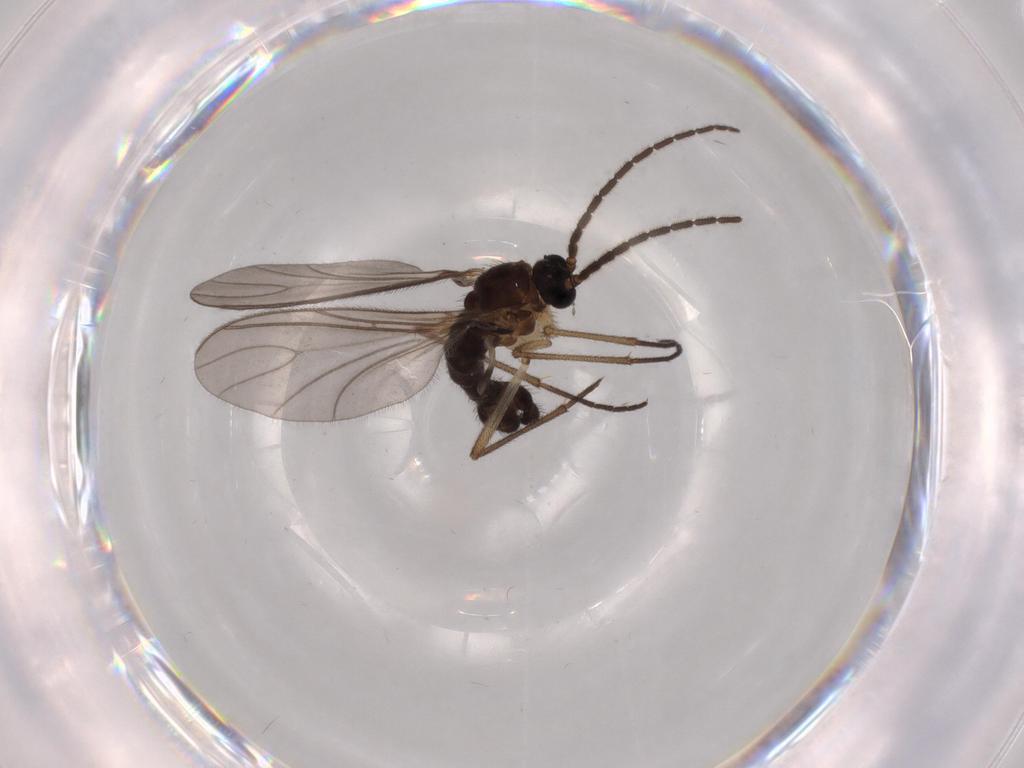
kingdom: Animalia
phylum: Arthropoda
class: Insecta
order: Diptera
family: Sciaridae
